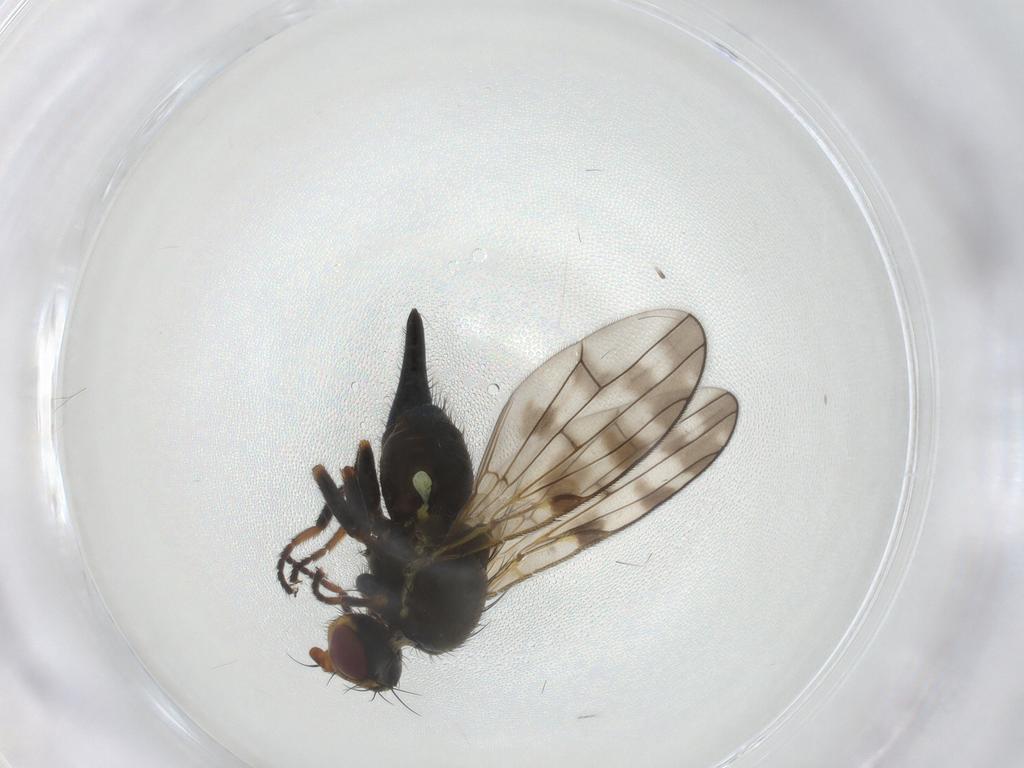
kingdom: Animalia
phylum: Arthropoda
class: Insecta
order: Diptera
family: Tephritidae
